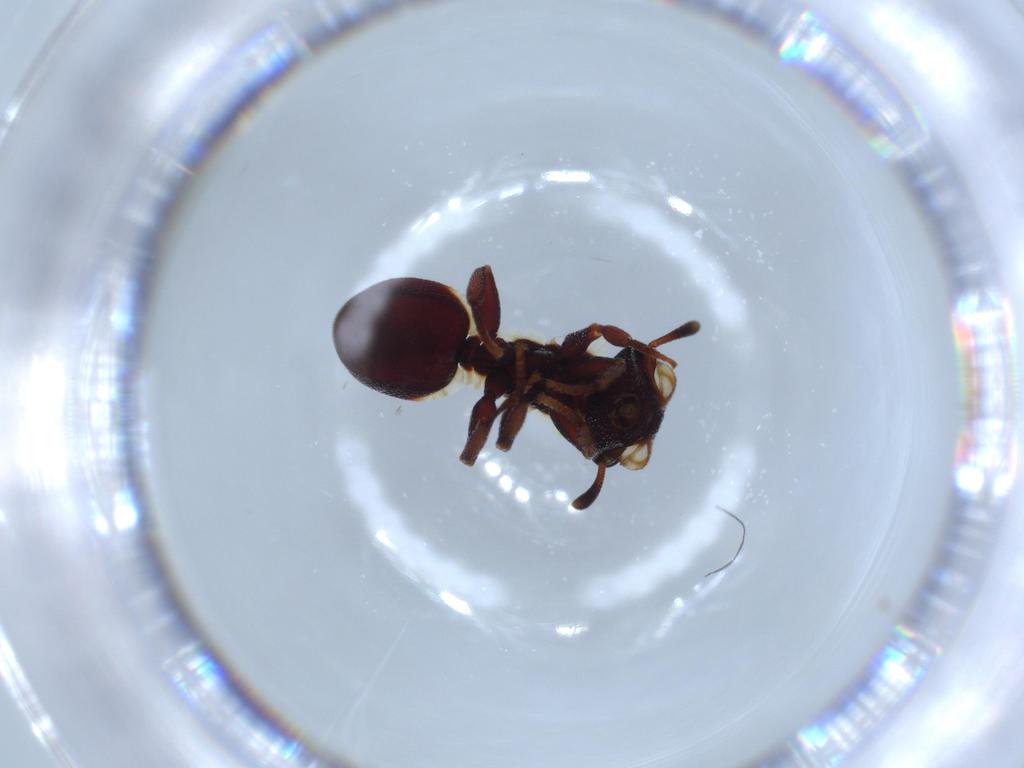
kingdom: Animalia
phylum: Arthropoda
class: Insecta
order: Hymenoptera
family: Formicidae
